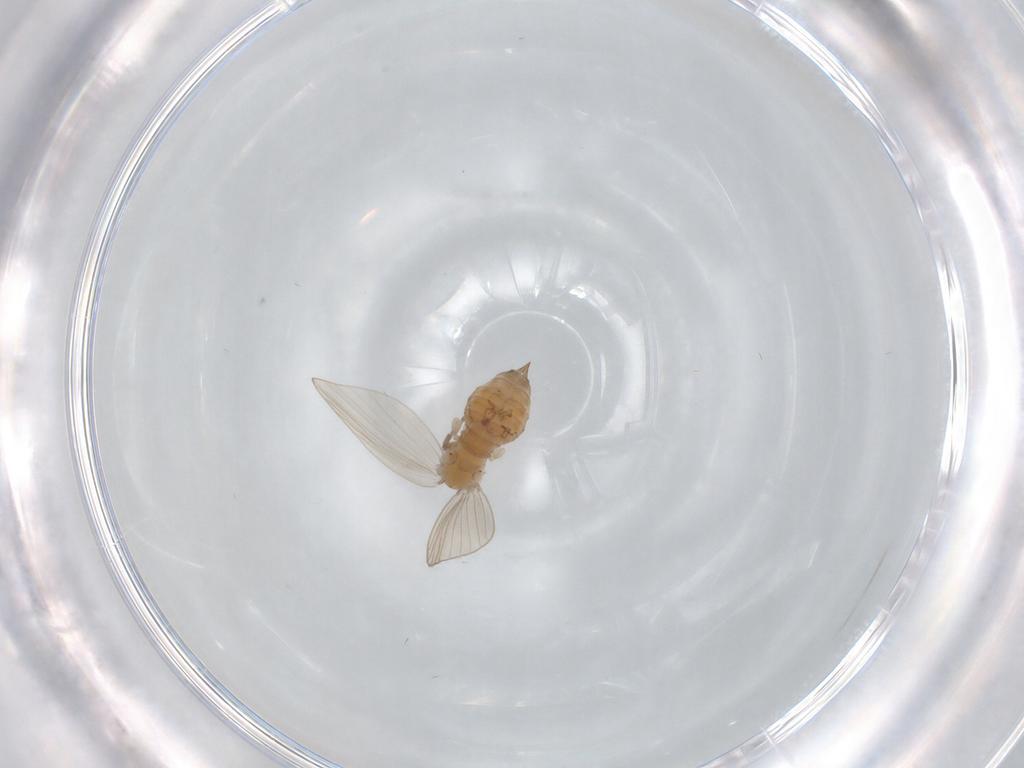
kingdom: Animalia
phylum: Arthropoda
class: Insecta
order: Diptera
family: Psychodidae
